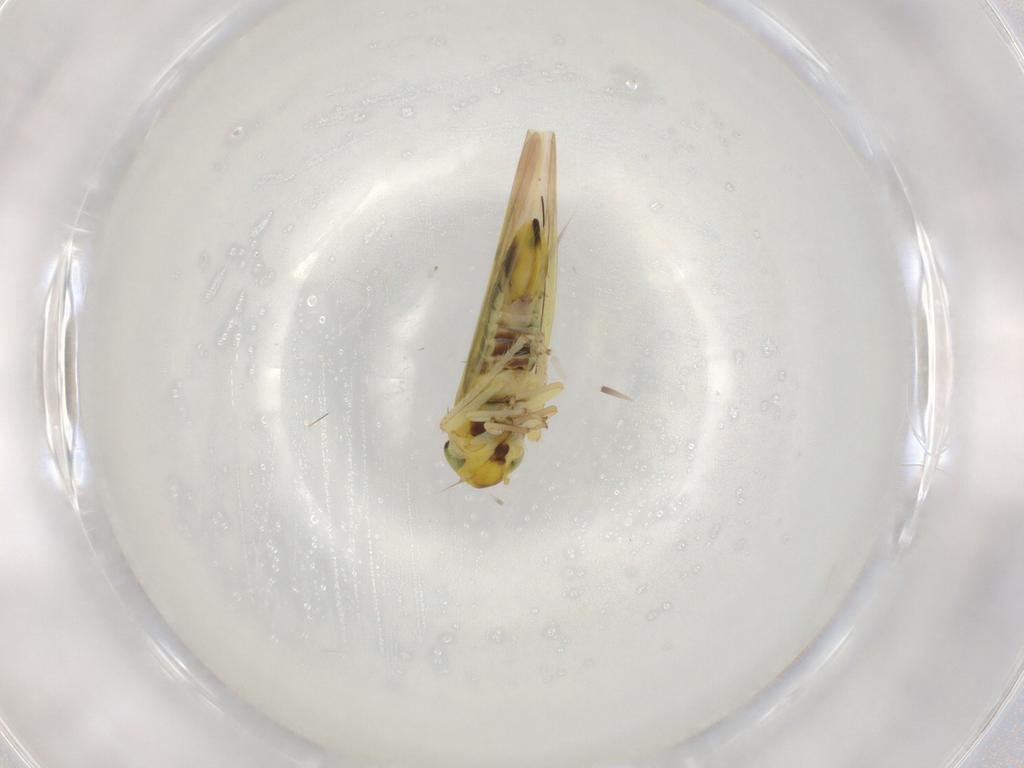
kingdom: Animalia
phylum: Arthropoda
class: Insecta
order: Hemiptera
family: Cicadellidae
